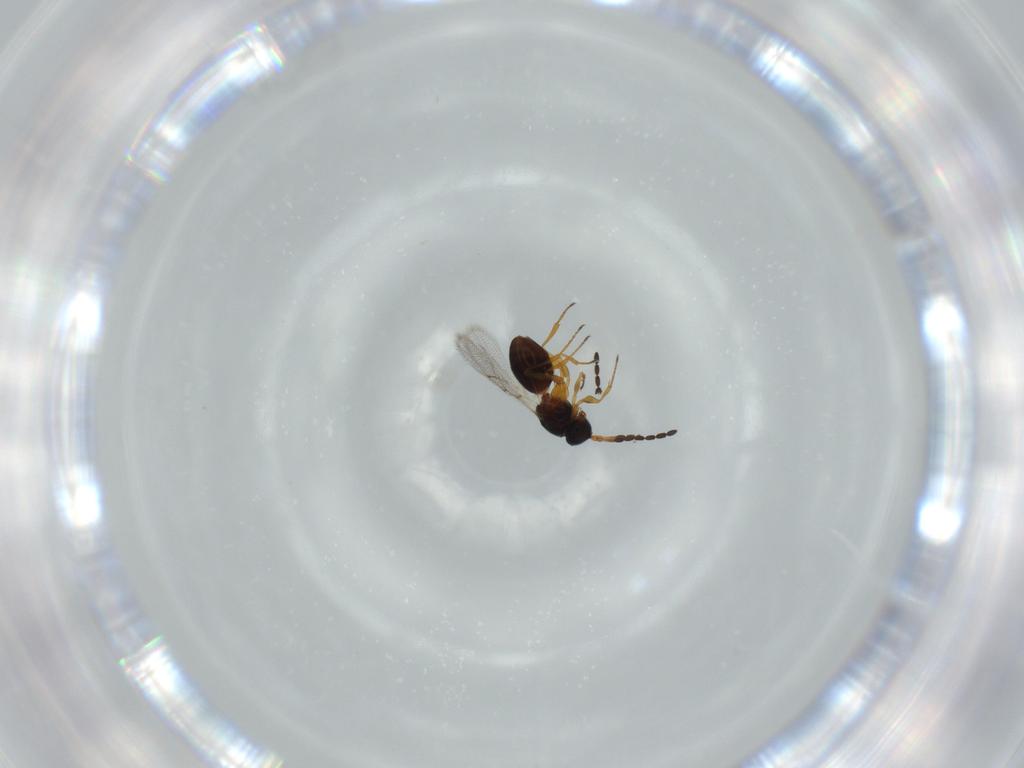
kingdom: Animalia
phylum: Arthropoda
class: Insecta
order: Hymenoptera
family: Figitidae
